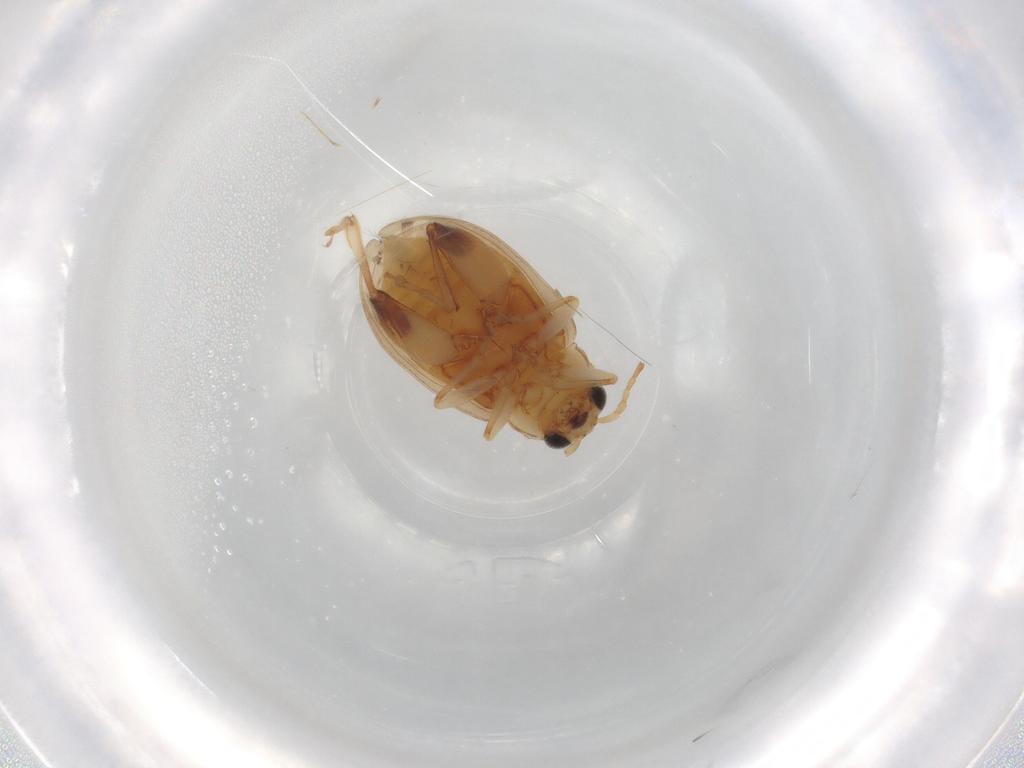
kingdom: Animalia
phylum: Arthropoda
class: Insecta
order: Coleoptera
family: Chrysomelidae
